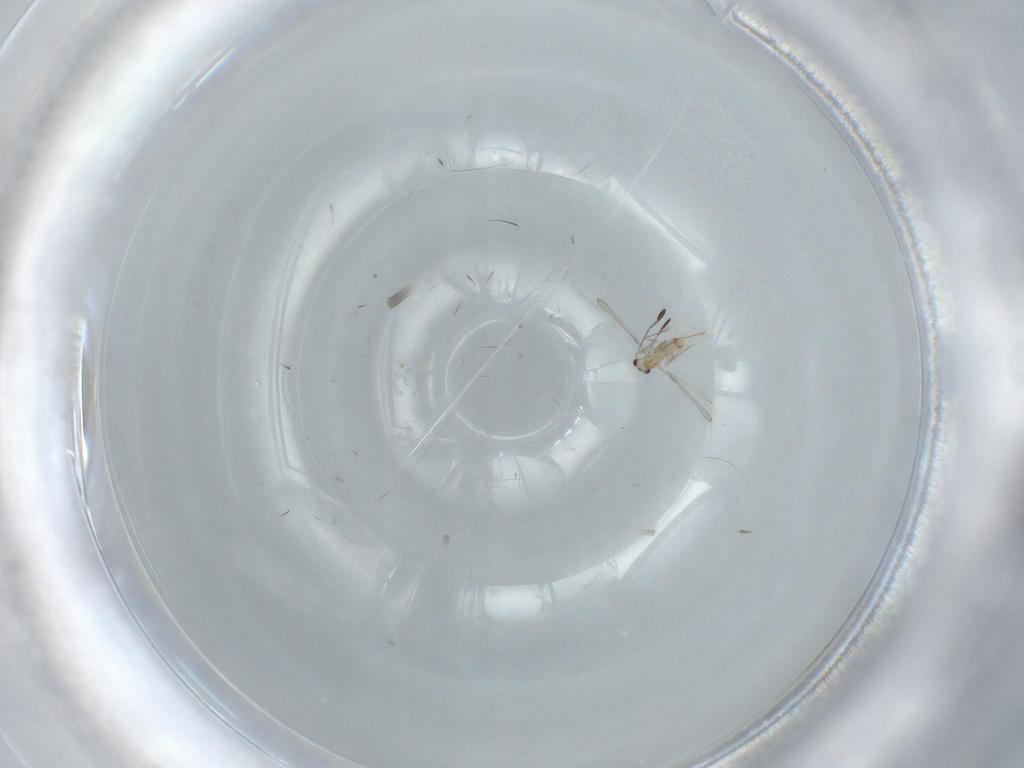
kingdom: Animalia
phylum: Arthropoda
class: Insecta
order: Hymenoptera
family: Mymaridae
